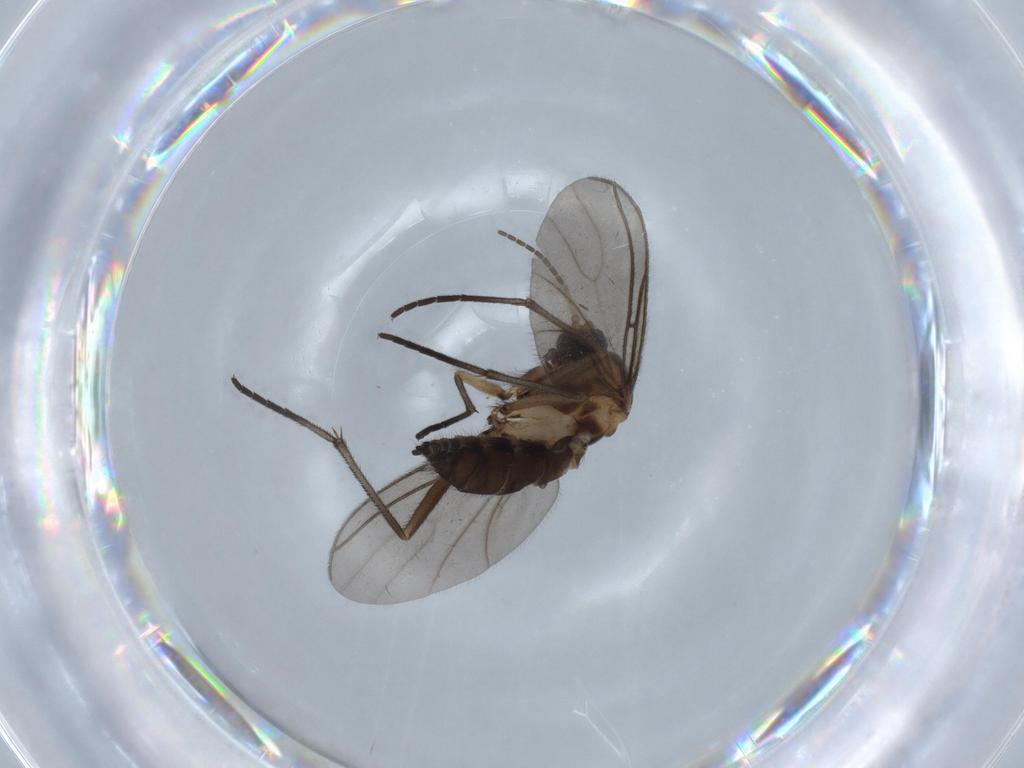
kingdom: Animalia
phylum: Arthropoda
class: Insecta
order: Diptera
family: Sciaridae
